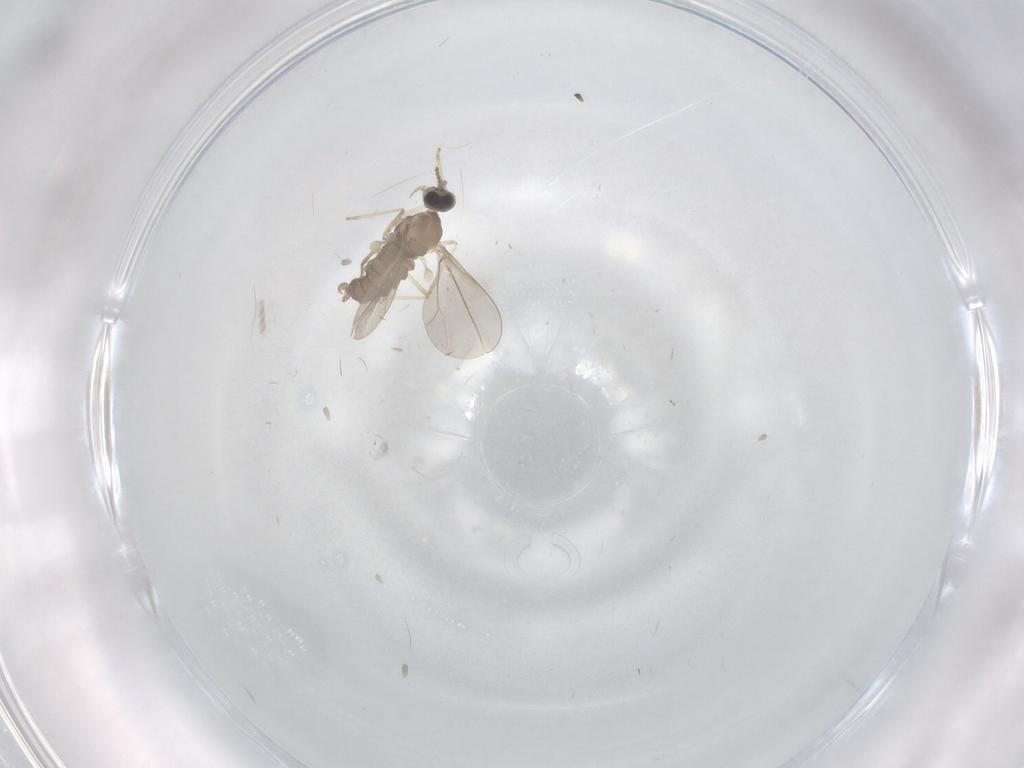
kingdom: Animalia
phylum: Arthropoda
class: Insecta
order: Diptera
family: Cecidomyiidae
